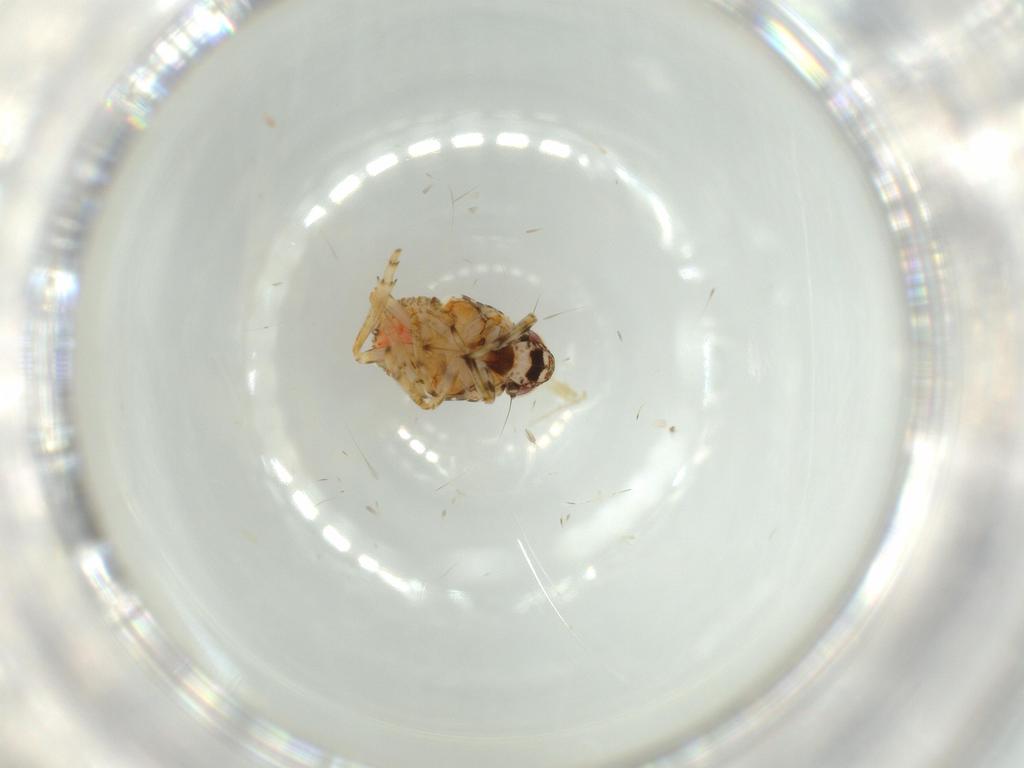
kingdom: Animalia
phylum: Arthropoda
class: Insecta
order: Hemiptera
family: Issidae
